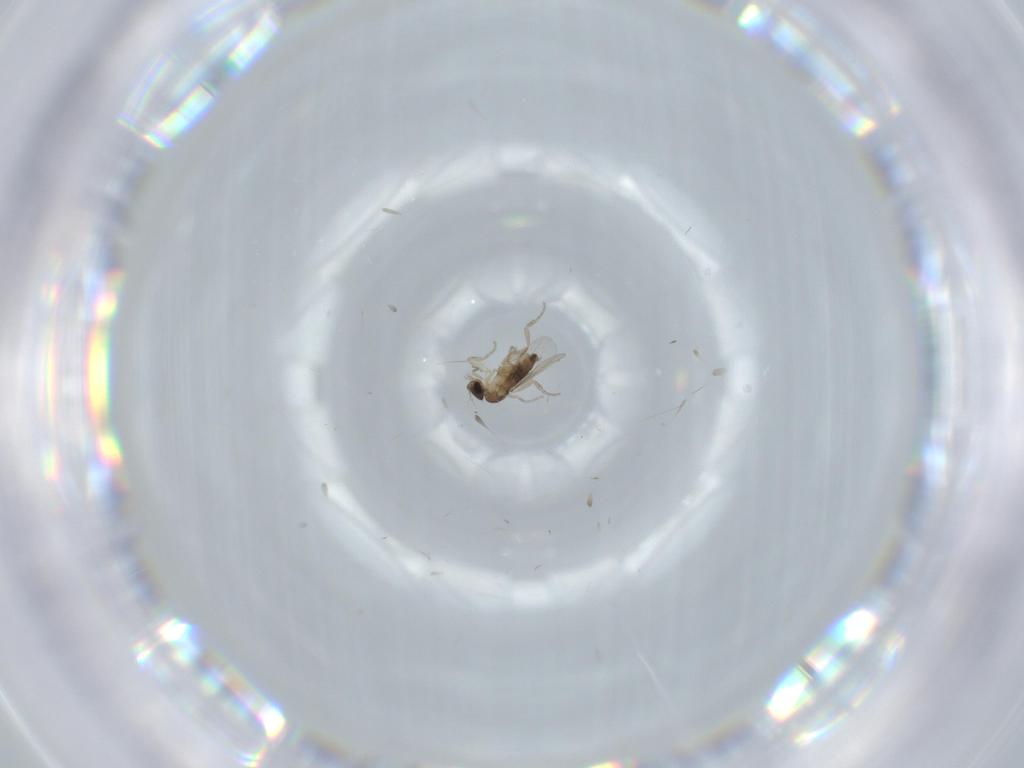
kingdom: Animalia
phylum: Arthropoda
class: Insecta
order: Diptera
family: Phoridae
